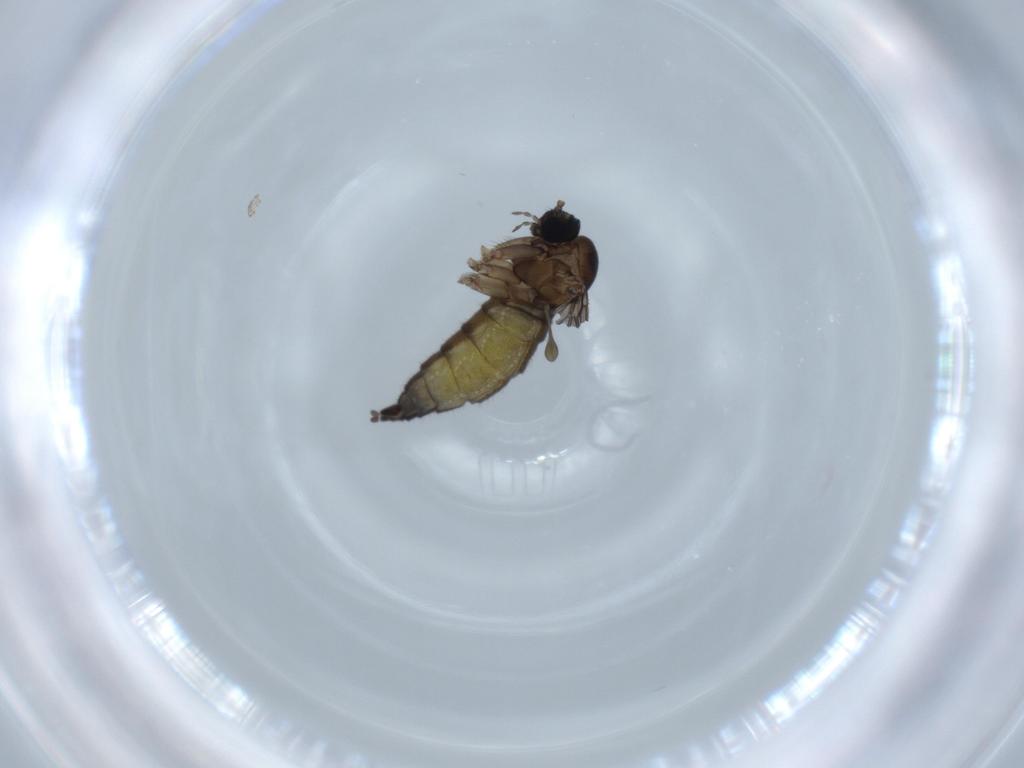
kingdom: Animalia
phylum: Arthropoda
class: Insecta
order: Diptera
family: Sciaridae
